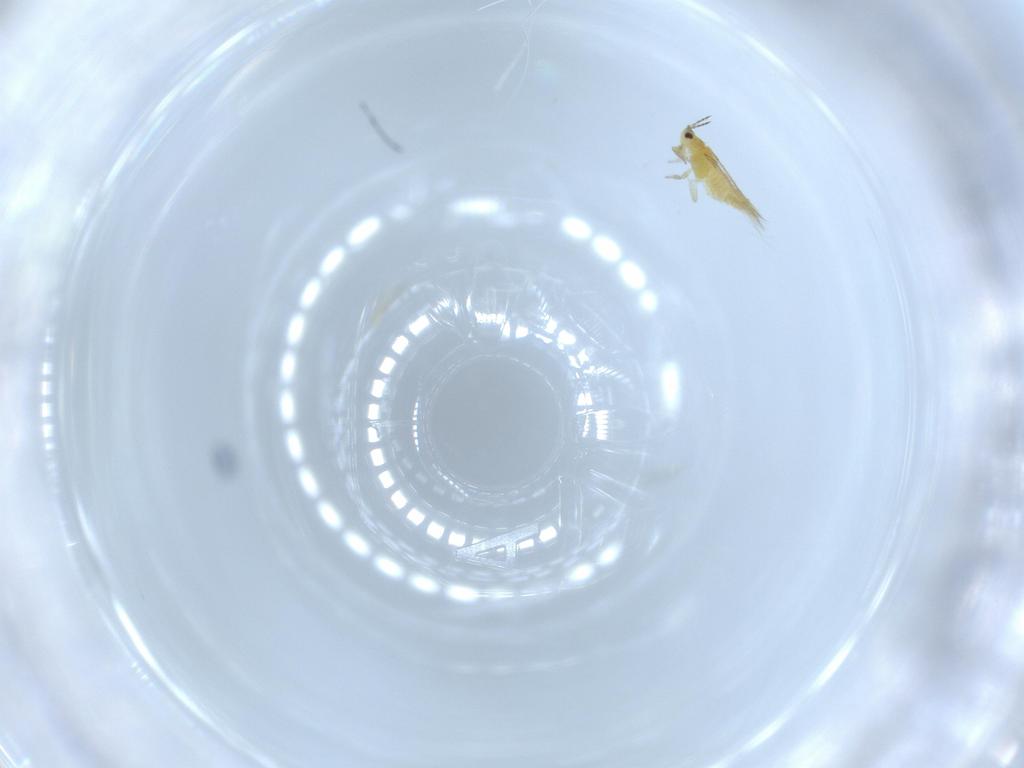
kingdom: Animalia
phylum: Arthropoda
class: Insecta
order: Thysanoptera
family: Thripidae
